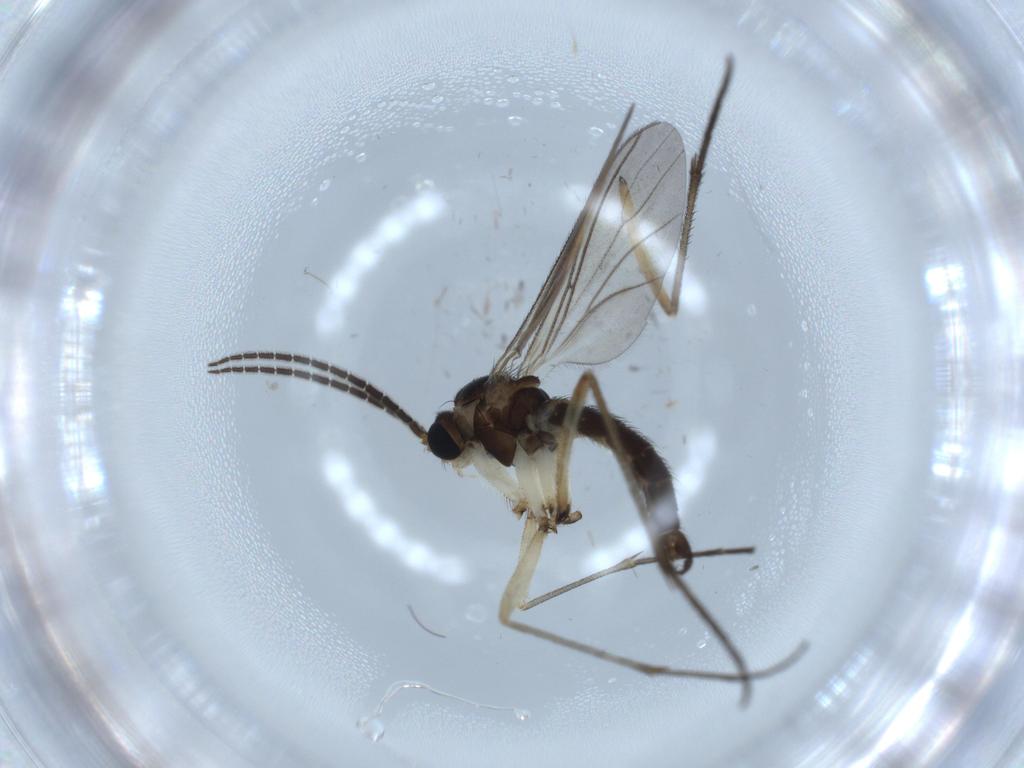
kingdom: Animalia
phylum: Arthropoda
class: Insecta
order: Diptera
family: Sciaridae
